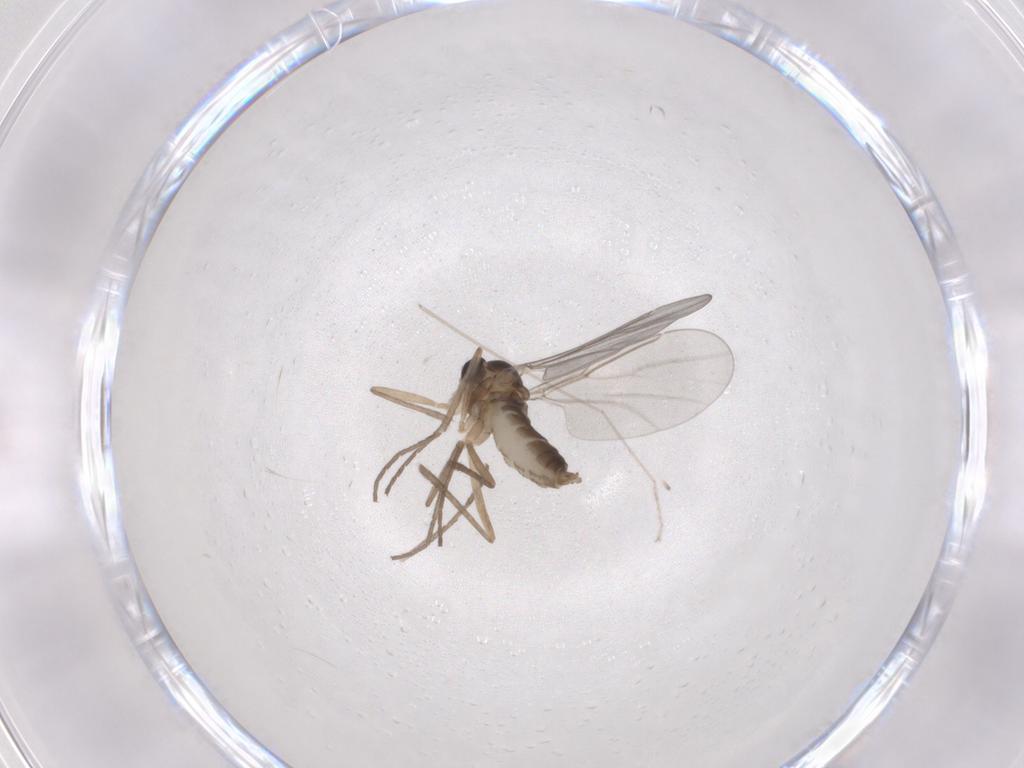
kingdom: Animalia
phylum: Arthropoda
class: Insecta
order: Diptera
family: Cecidomyiidae
